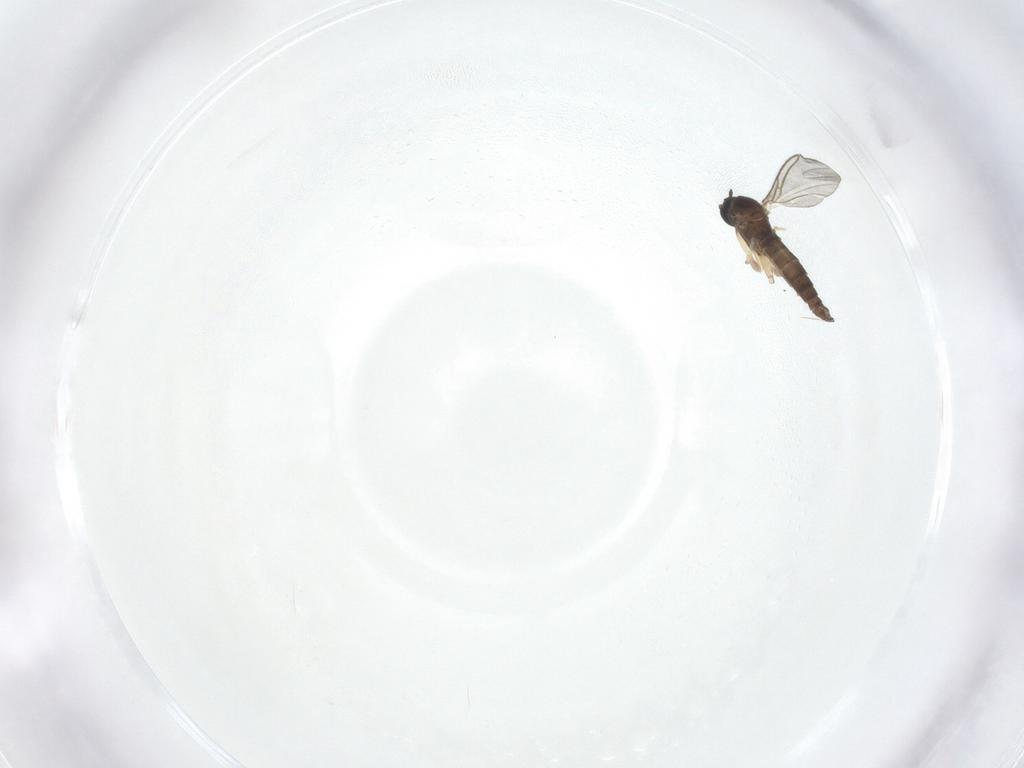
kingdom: Animalia
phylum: Arthropoda
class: Insecta
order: Diptera
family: Sciaridae
